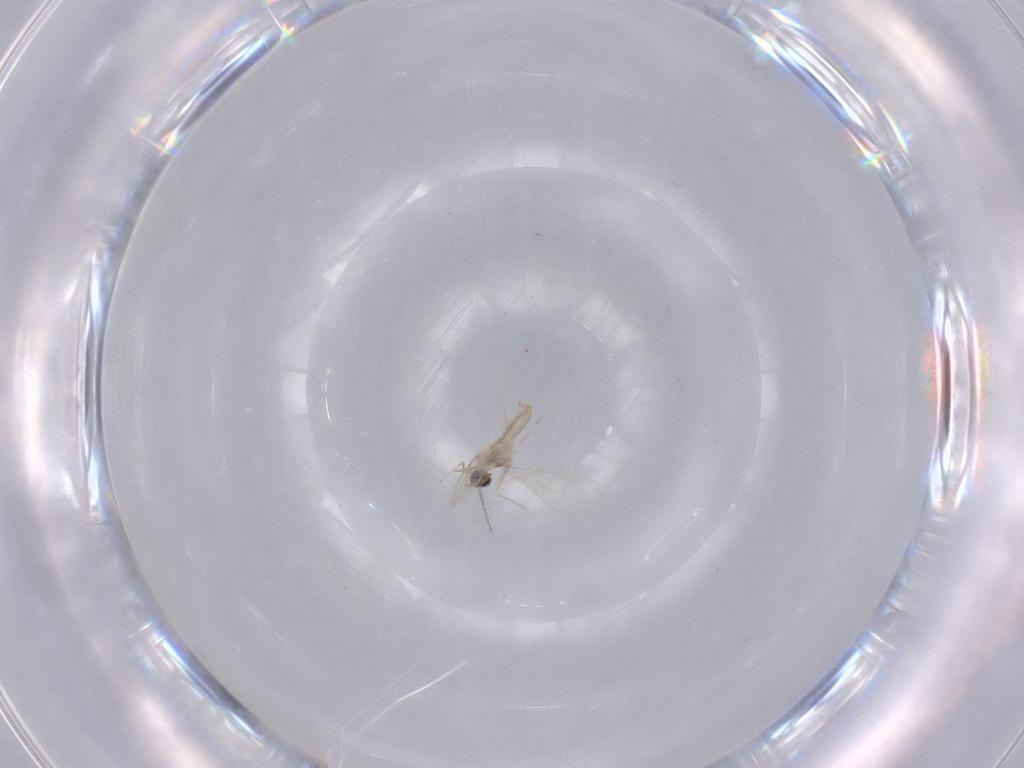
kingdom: Animalia
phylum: Arthropoda
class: Insecta
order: Diptera
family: Cecidomyiidae
